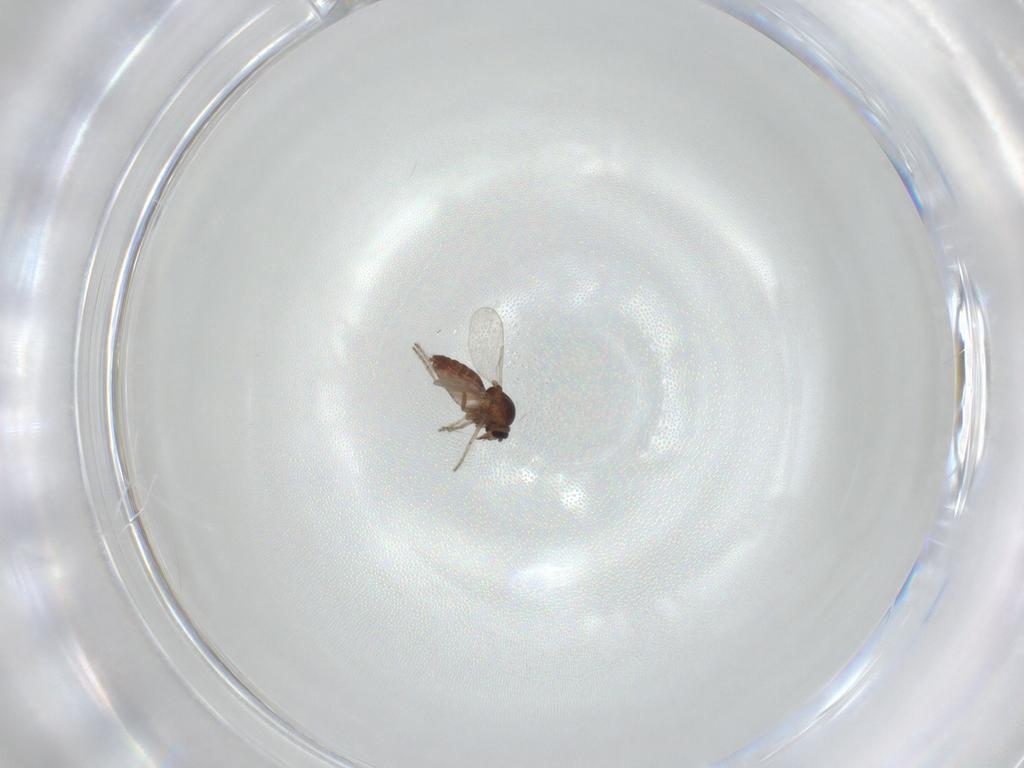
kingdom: Animalia
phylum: Arthropoda
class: Insecta
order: Diptera
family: Ceratopogonidae
